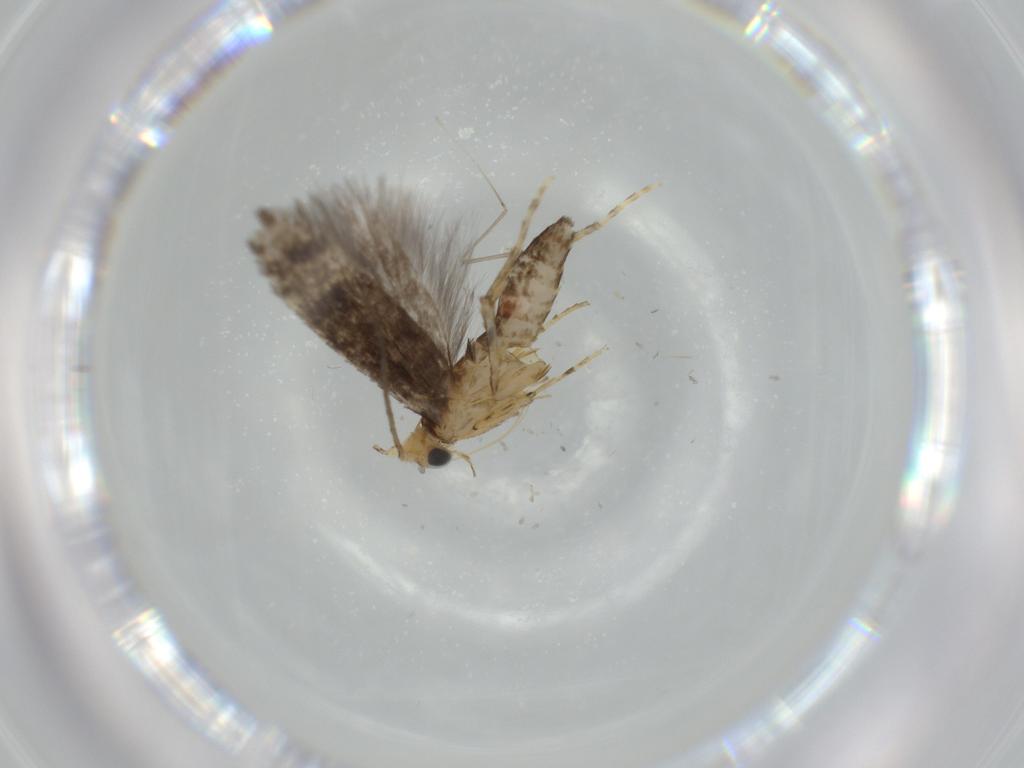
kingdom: Animalia
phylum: Arthropoda
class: Insecta
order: Lepidoptera
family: Argyresthiidae
